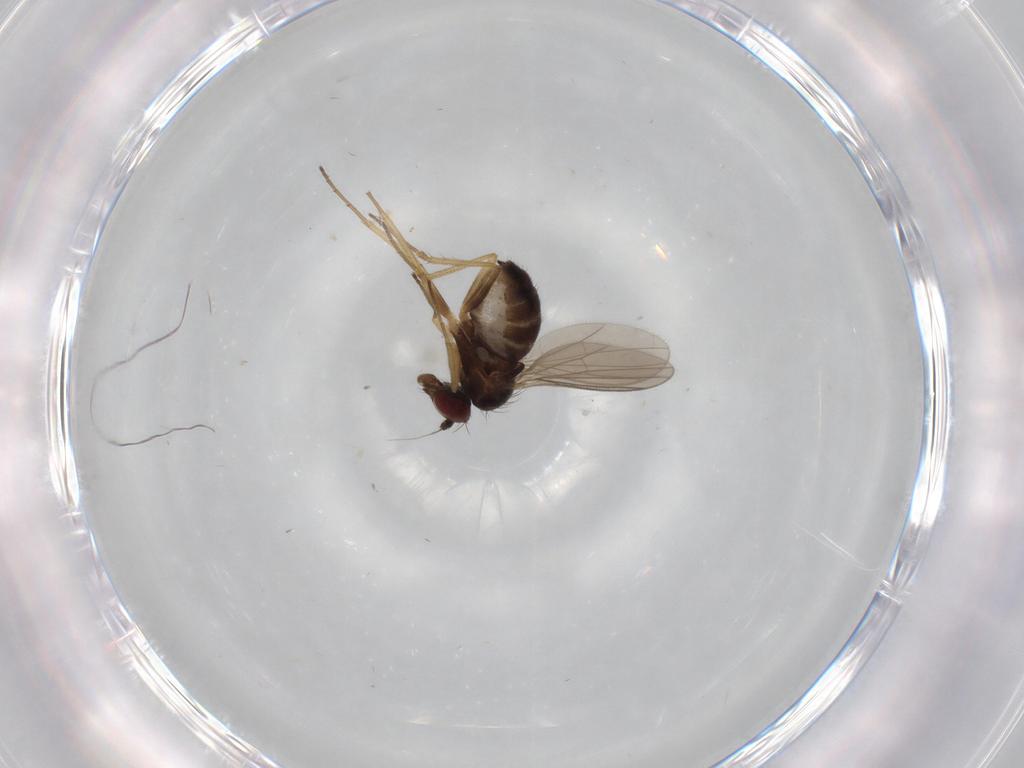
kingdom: Animalia
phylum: Arthropoda
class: Insecta
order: Diptera
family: Dolichopodidae
